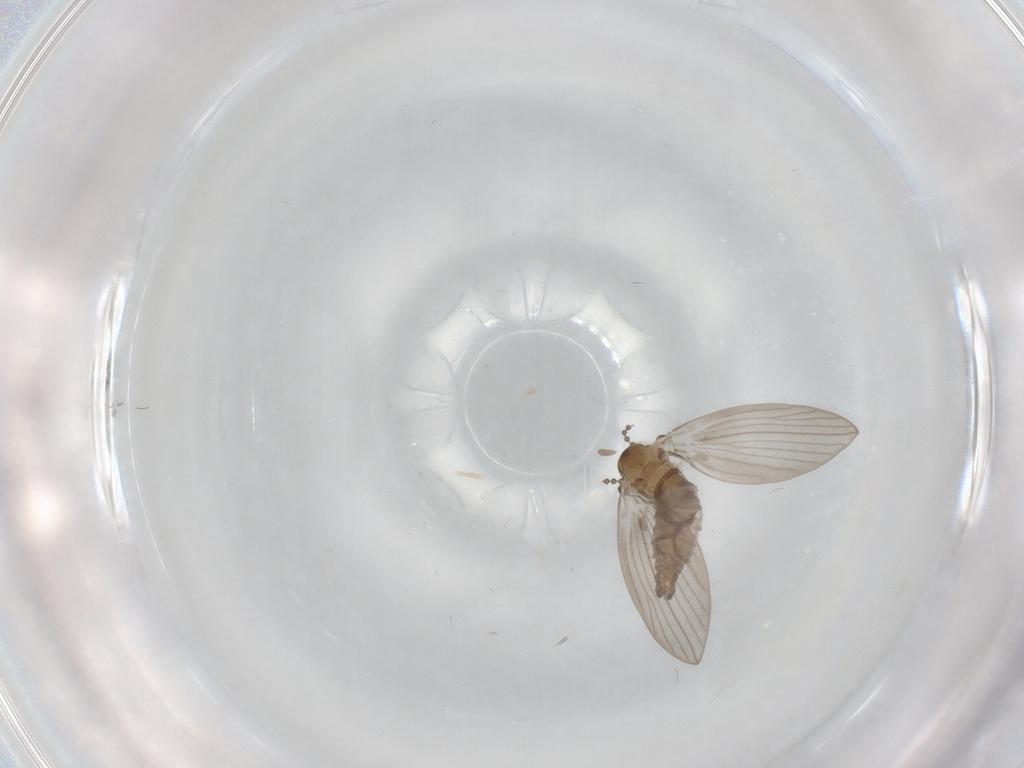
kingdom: Animalia
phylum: Arthropoda
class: Insecta
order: Diptera
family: Psychodidae
